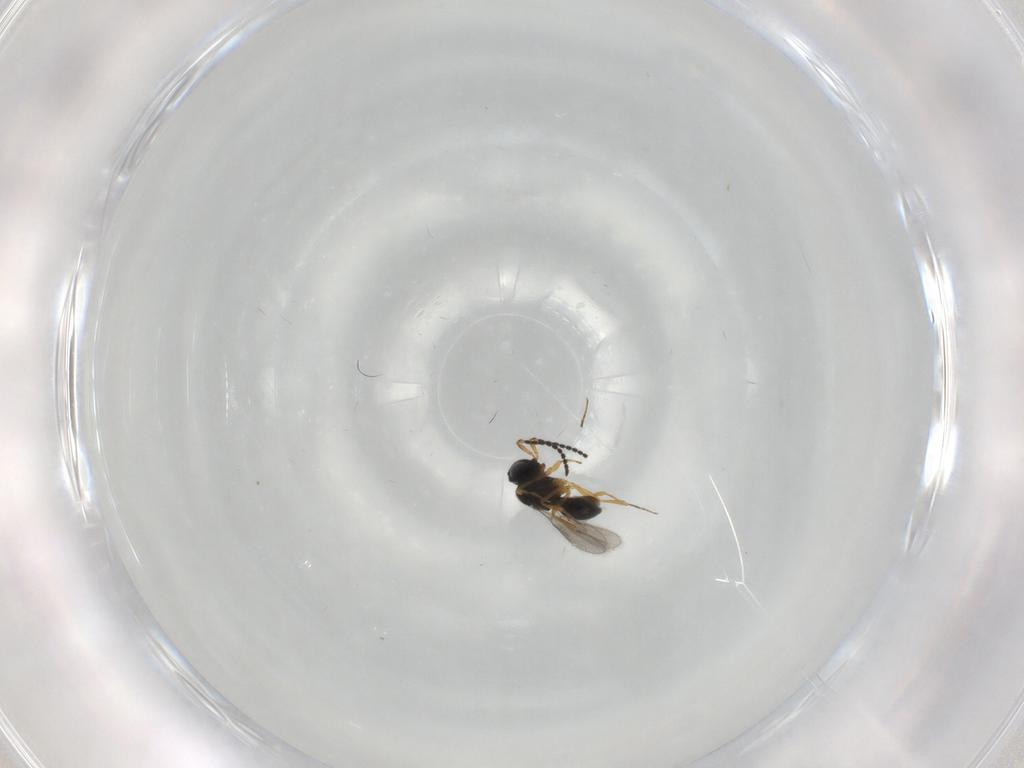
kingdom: Animalia
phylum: Arthropoda
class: Insecta
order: Hymenoptera
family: Scelionidae
